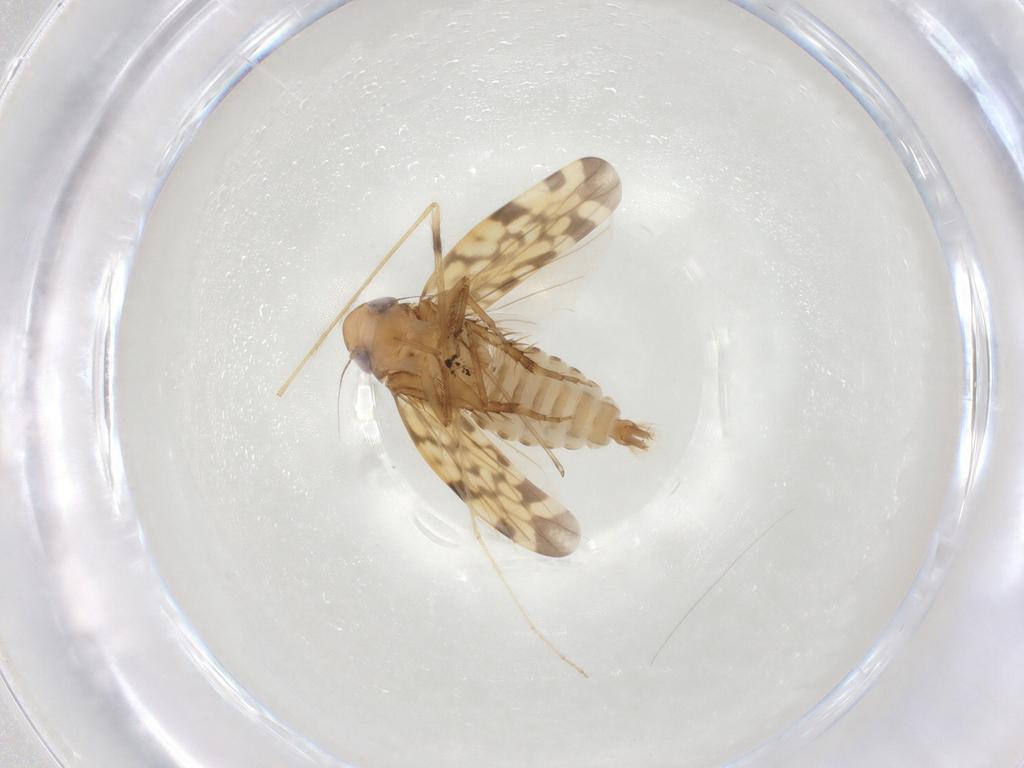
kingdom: Animalia
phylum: Arthropoda
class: Insecta
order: Hemiptera
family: Cicadellidae
